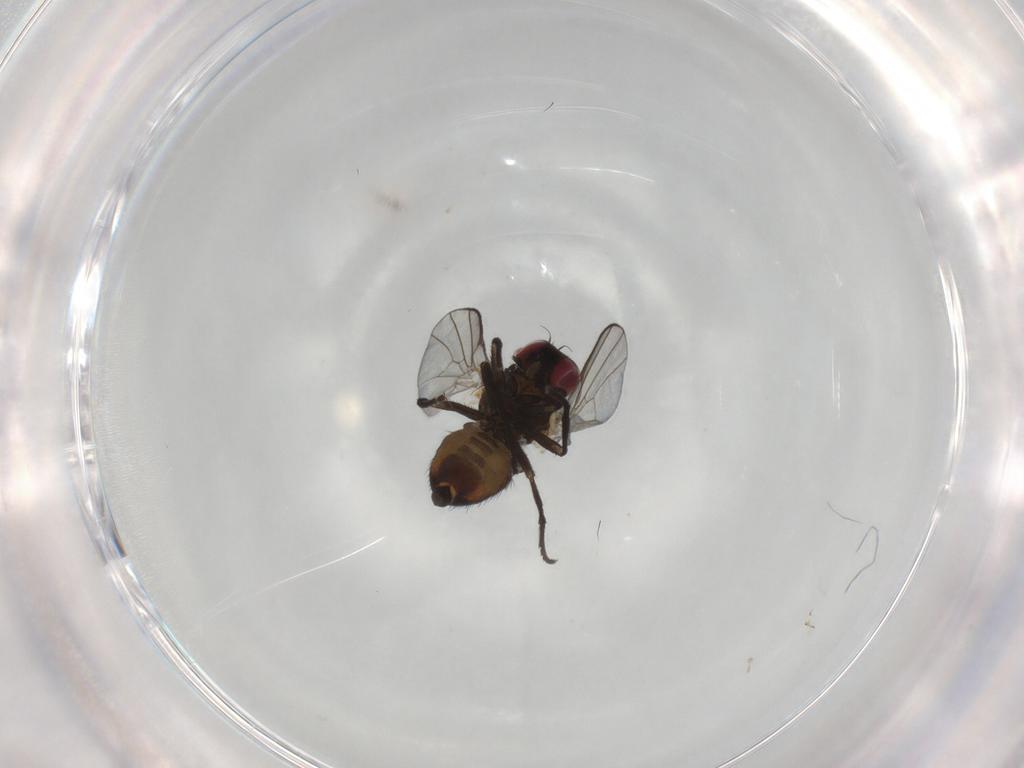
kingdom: Animalia
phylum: Arthropoda
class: Insecta
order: Diptera
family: Agromyzidae
